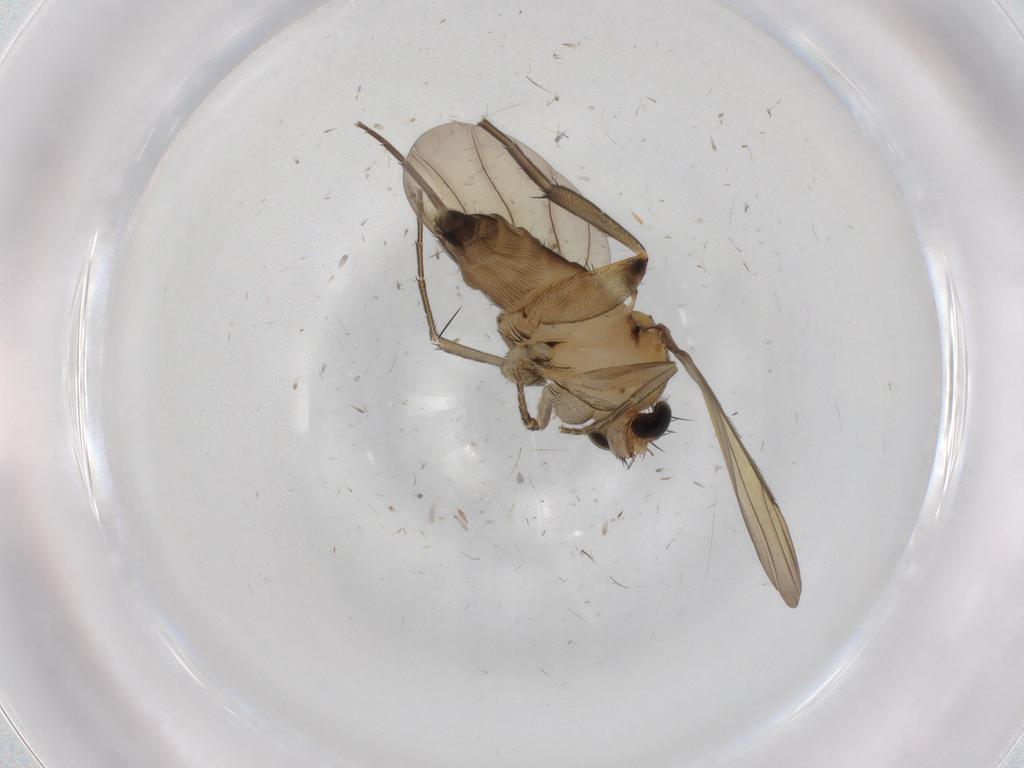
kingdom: Animalia
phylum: Arthropoda
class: Insecta
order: Diptera
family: Phoridae
